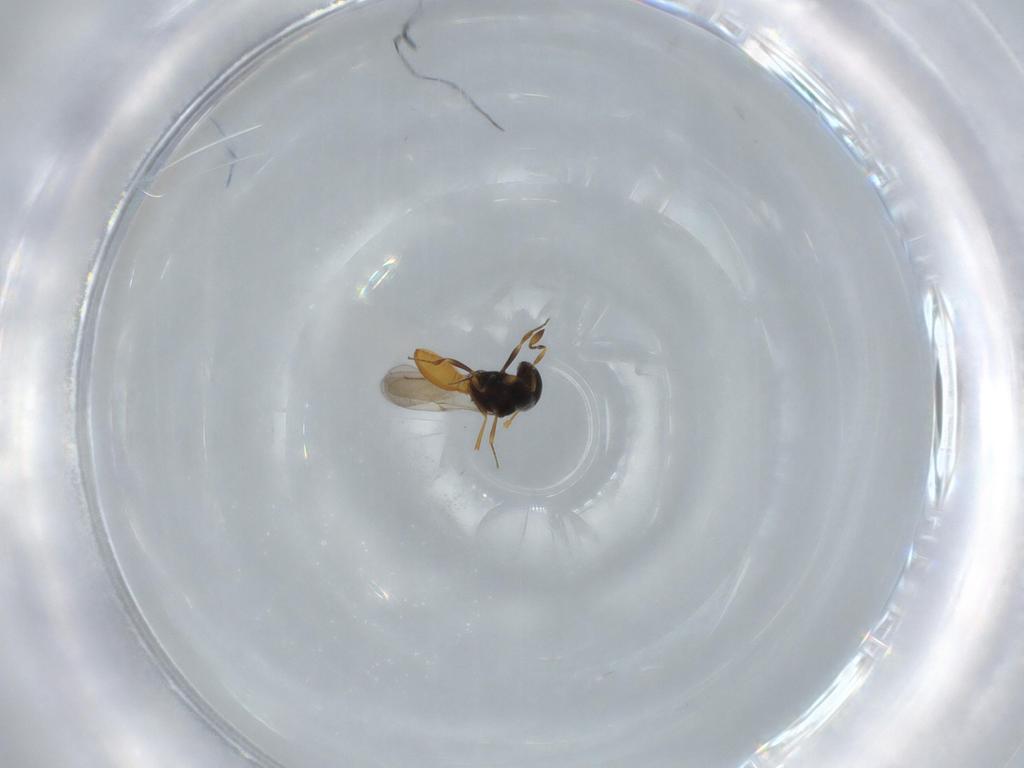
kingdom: Animalia
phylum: Arthropoda
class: Insecta
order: Hymenoptera
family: Scelionidae
